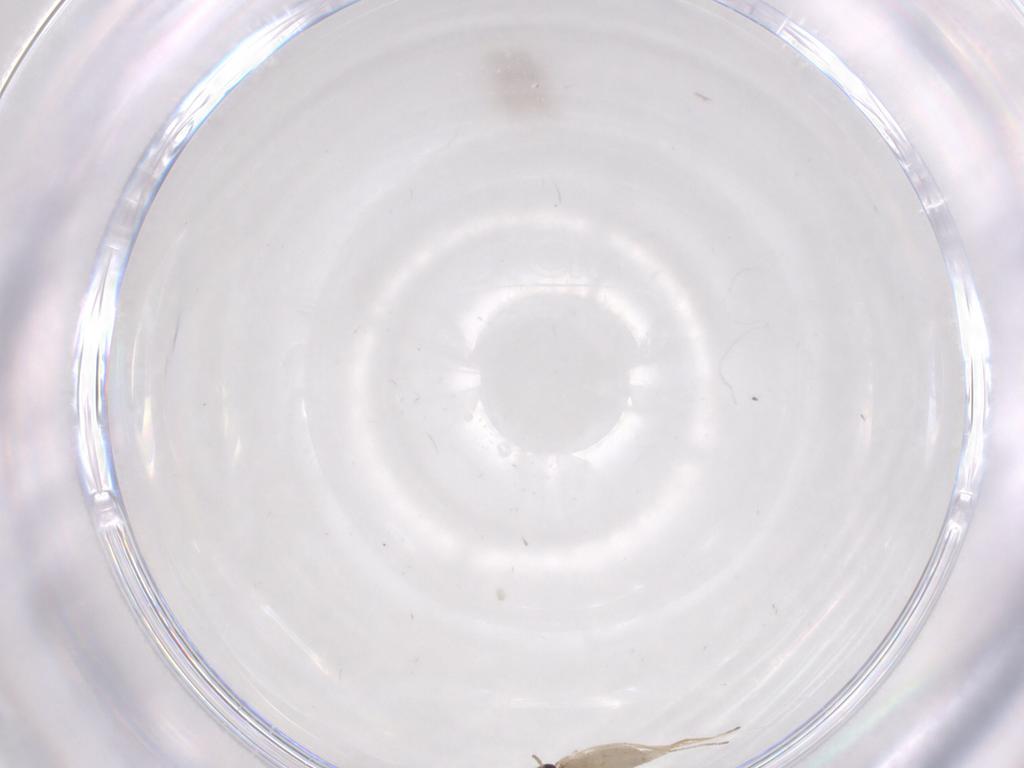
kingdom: Animalia
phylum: Arthropoda
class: Insecta
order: Diptera
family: Cecidomyiidae
